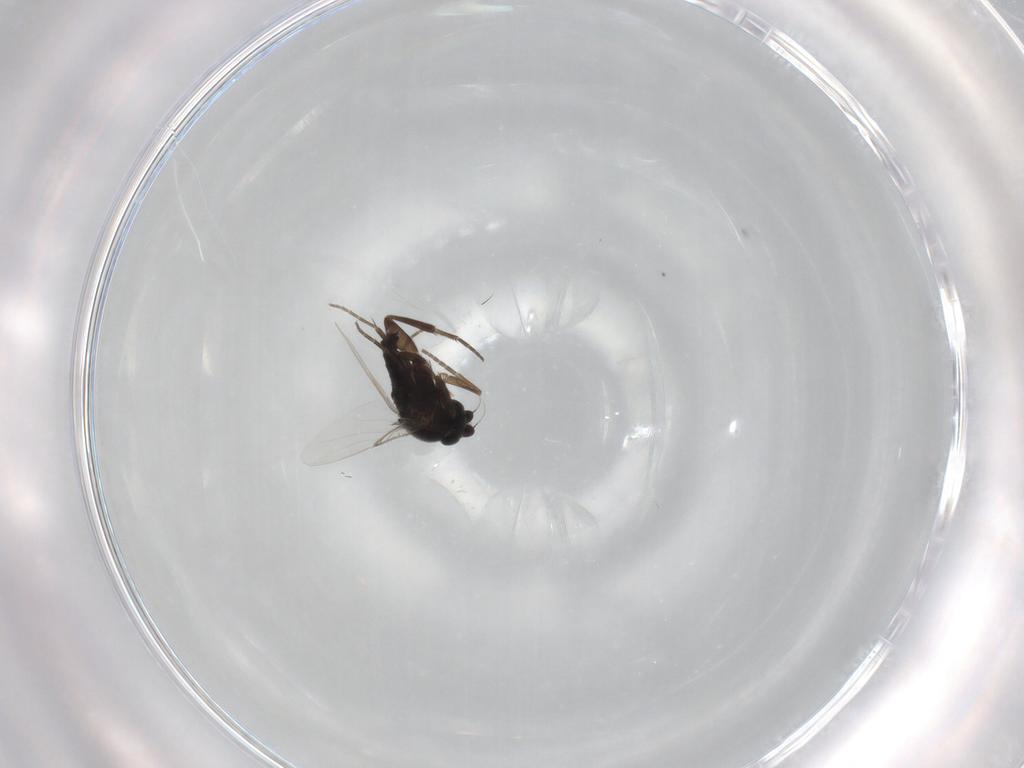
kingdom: Animalia
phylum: Arthropoda
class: Insecta
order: Diptera
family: Phoridae
